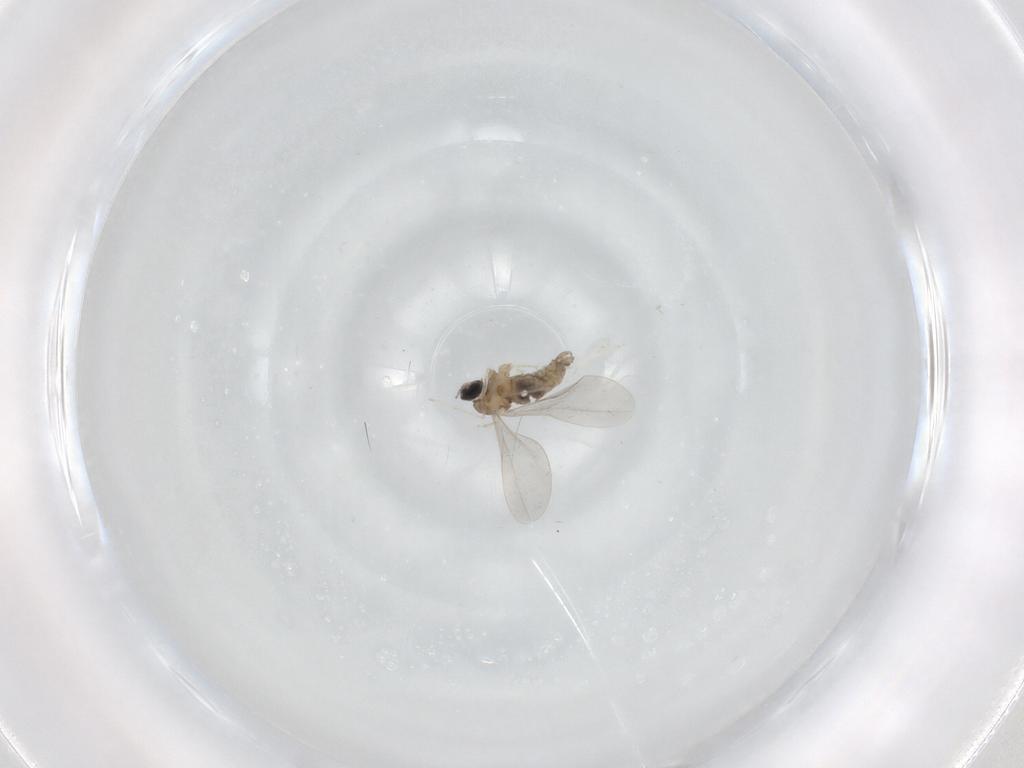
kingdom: Animalia
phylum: Arthropoda
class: Insecta
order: Diptera
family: Cecidomyiidae
